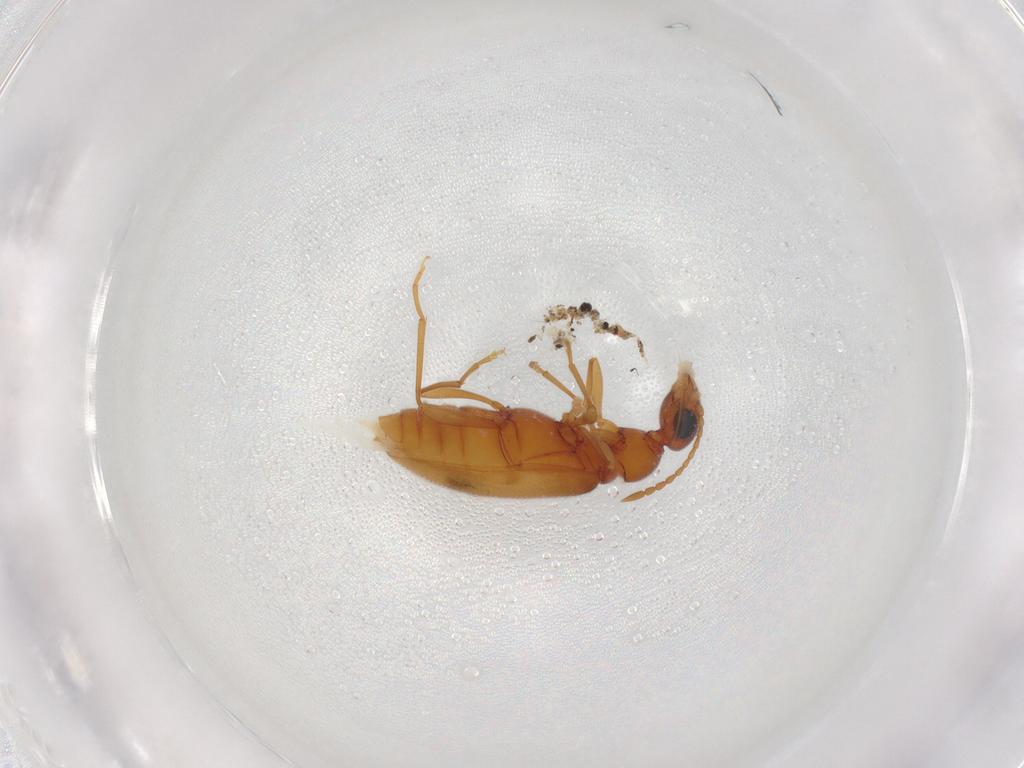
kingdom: Animalia
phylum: Arthropoda
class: Insecta
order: Coleoptera
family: Anthicidae
